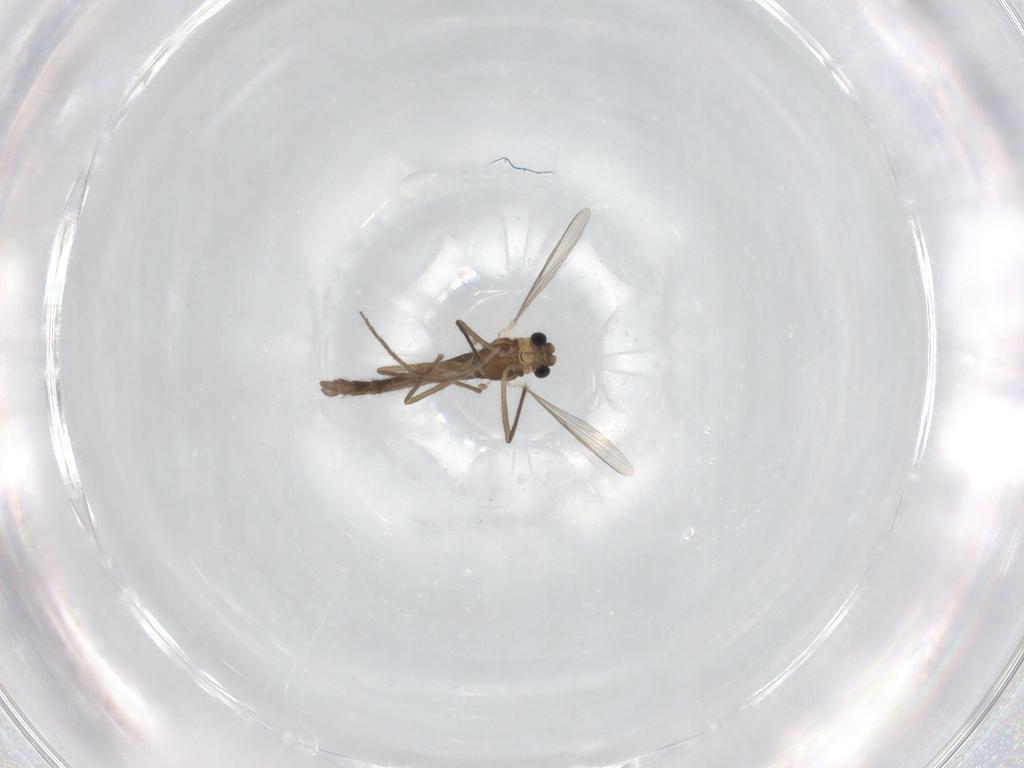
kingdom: Animalia
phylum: Arthropoda
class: Insecta
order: Diptera
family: Chironomidae
